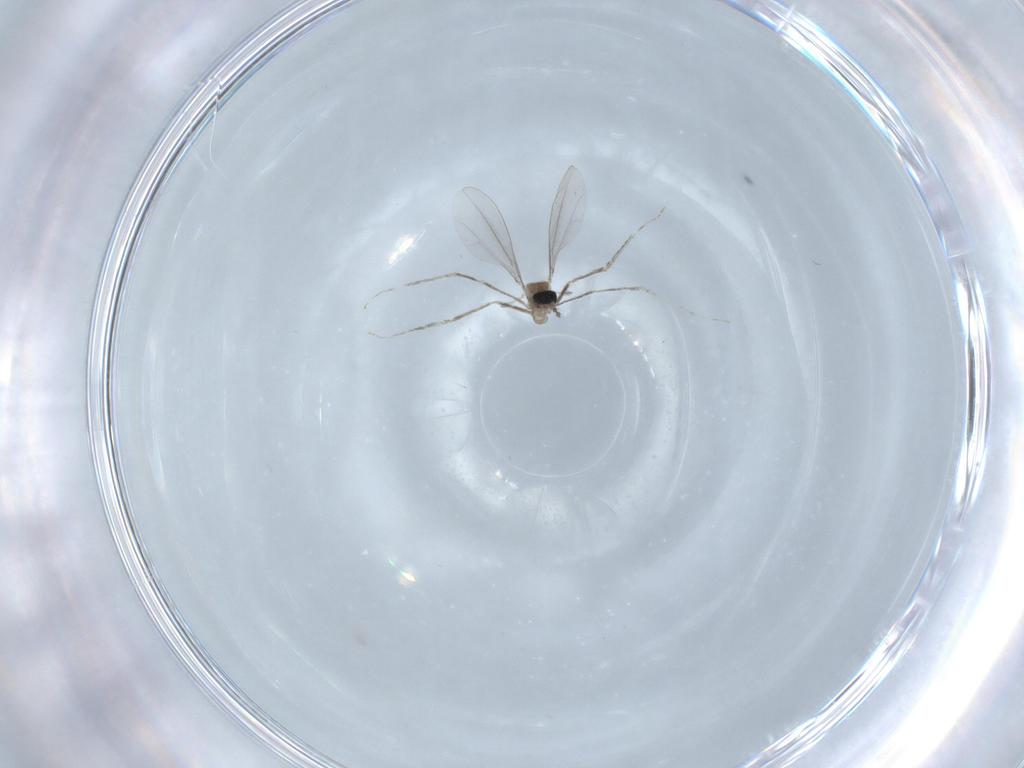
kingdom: Animalia
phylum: Arthropoda
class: Insecta
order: Diptera
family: Cecidomyiidae
